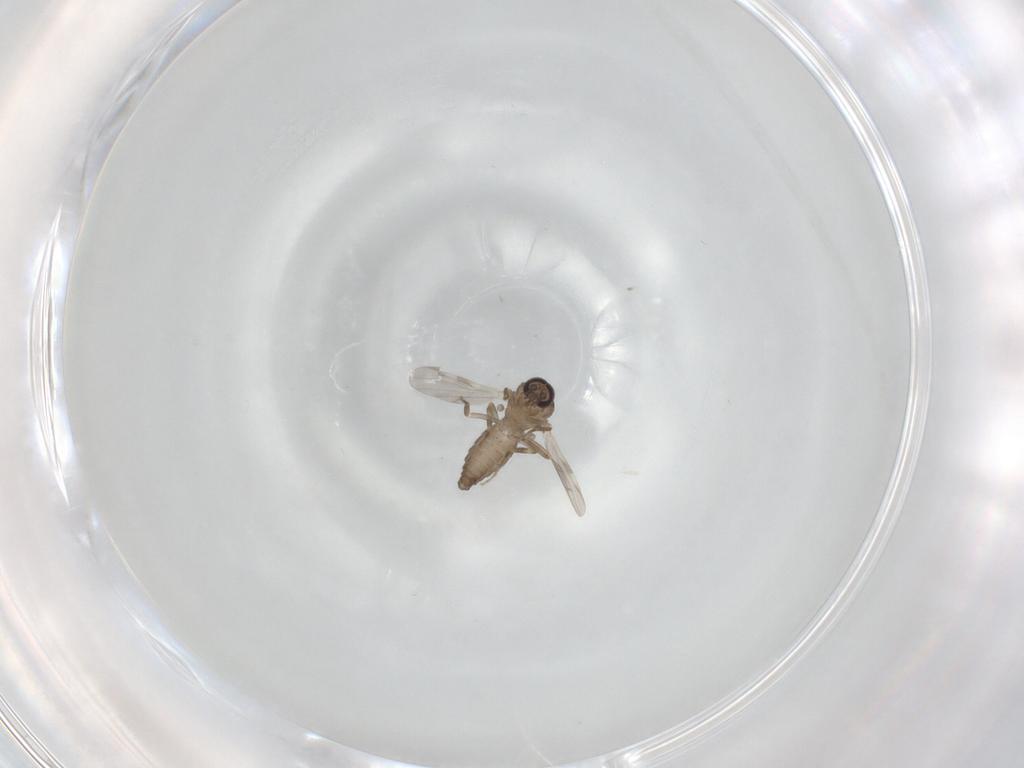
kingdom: Animalia
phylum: Arthropoda
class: Insecta
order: Diptera
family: Ceratopogonidae
